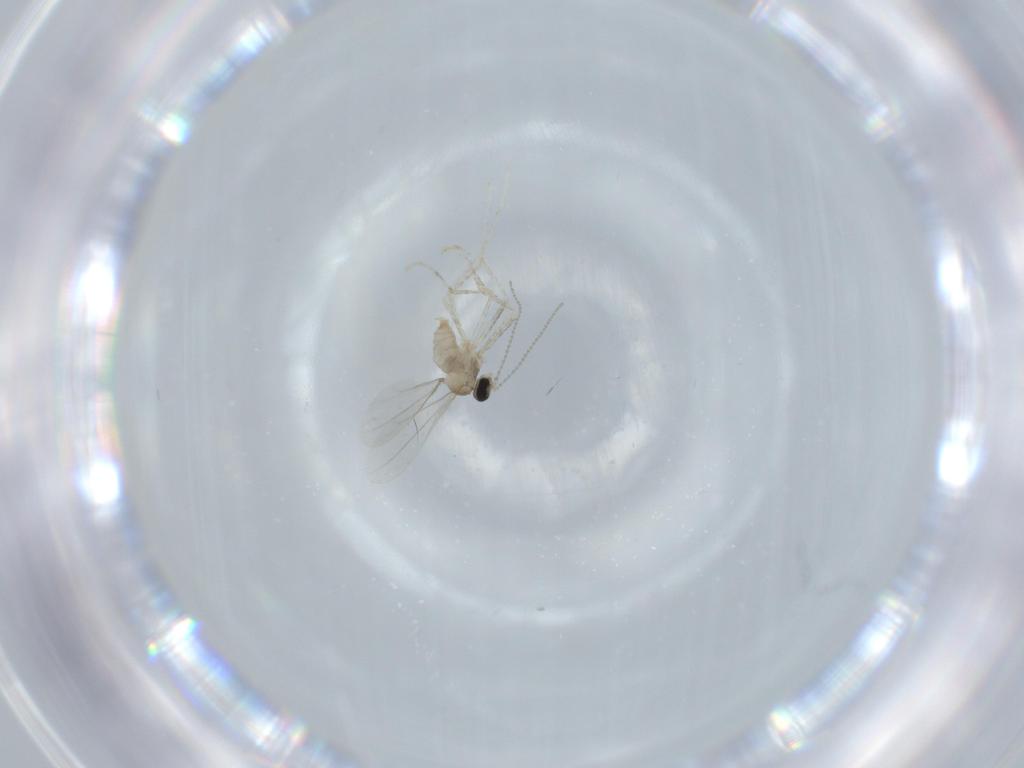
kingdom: Animalia
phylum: Arthropoda
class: Insecta
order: Diptera
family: Cecidomyiidae
